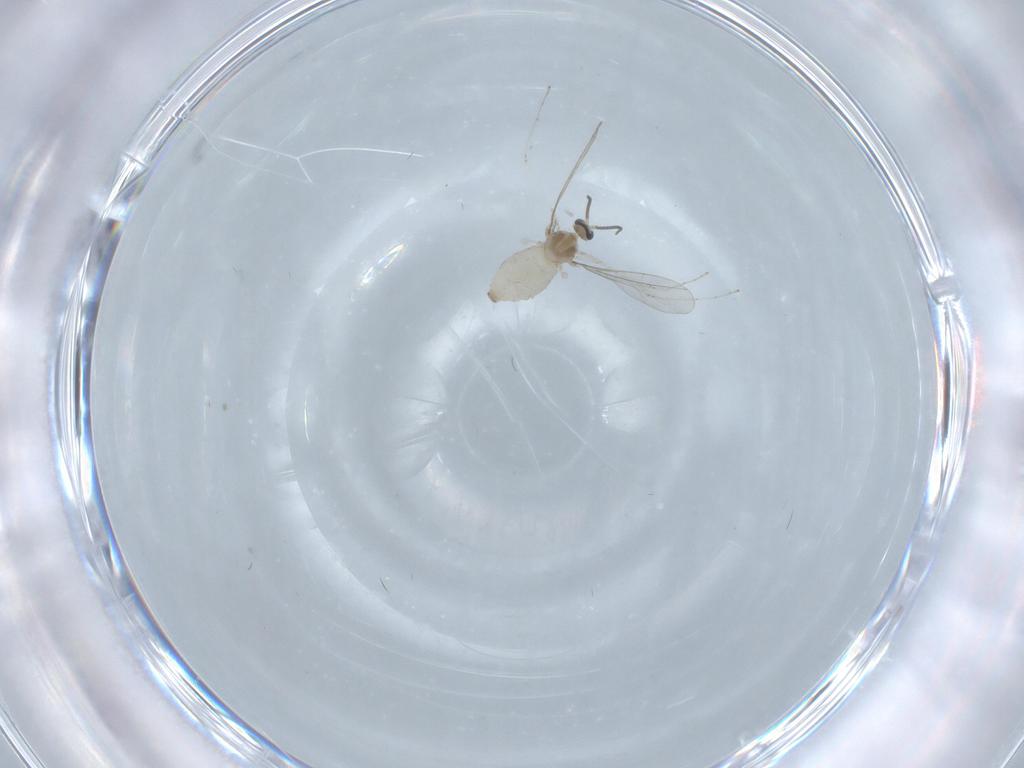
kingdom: Animalia
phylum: Arthropoda
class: Insecta
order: Diptera
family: Cecidomyiidae
